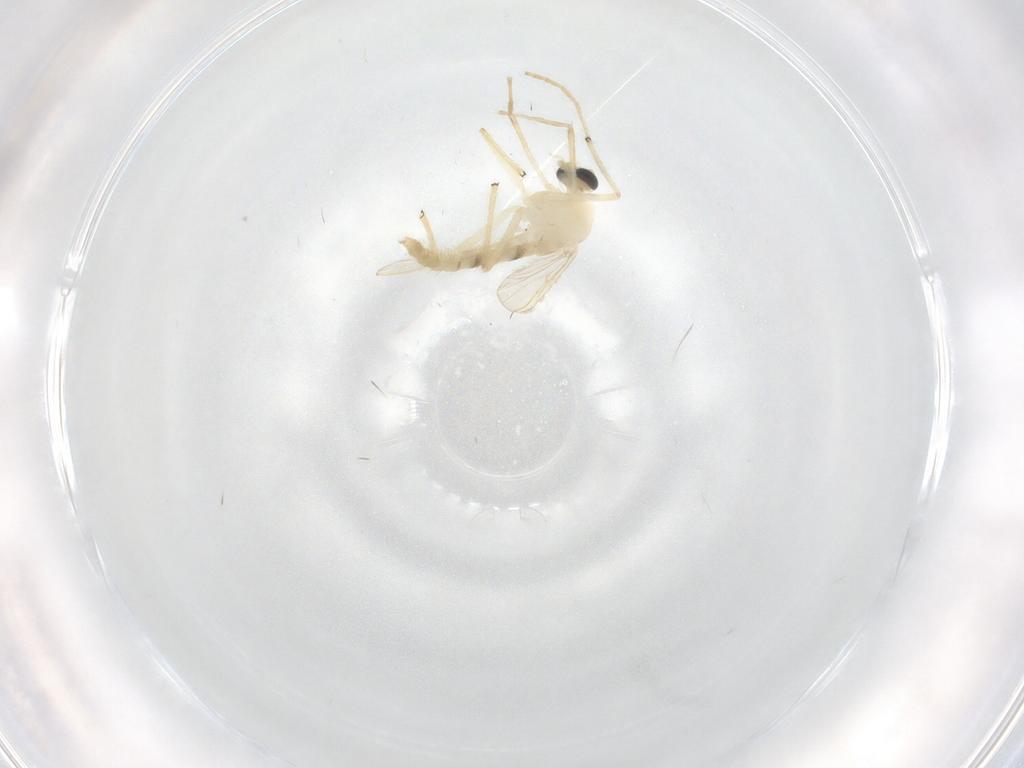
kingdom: Animalia
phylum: Arthropoda
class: Insecta
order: Diptera
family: Chironomidae
